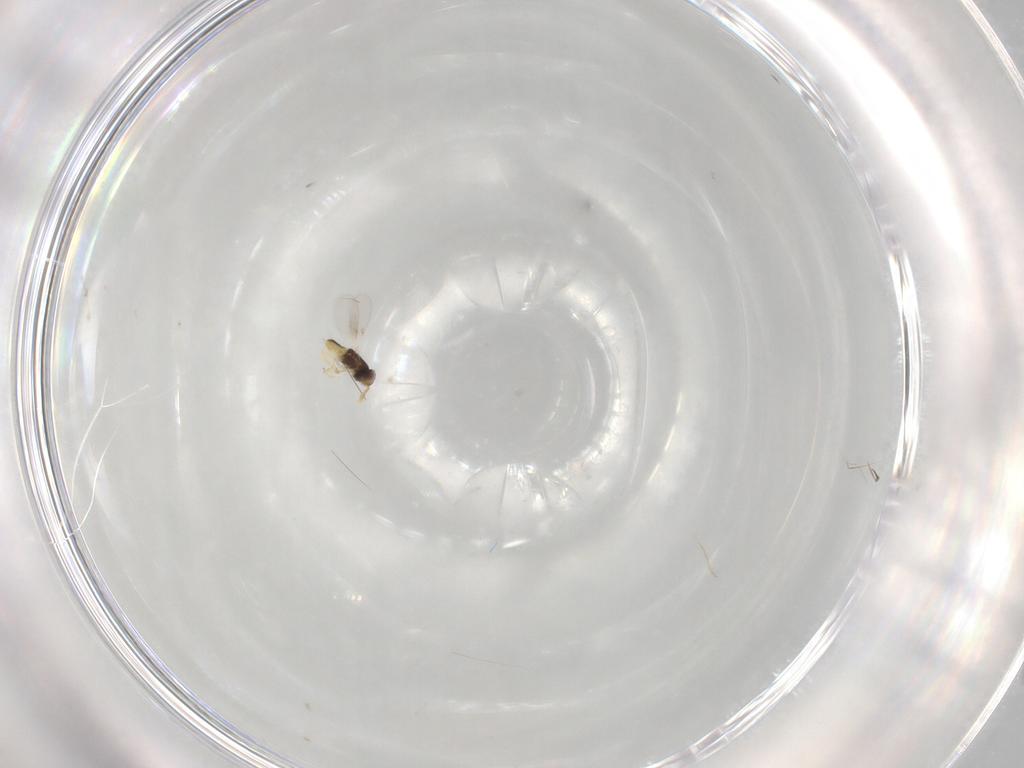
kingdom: Animalia
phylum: Arthropoda
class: Insecta
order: Hymenoptera
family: Encyrtidae
